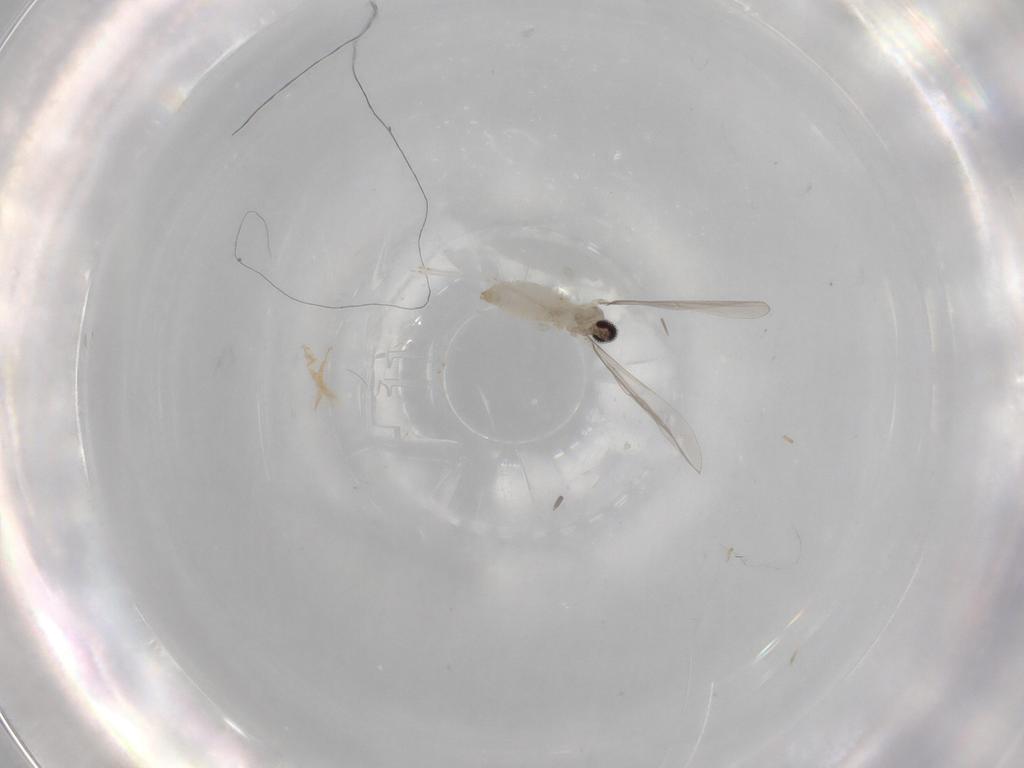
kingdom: Animalia
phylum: Arthropoda
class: Insecta
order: Diptera
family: Cecidomyiidae
